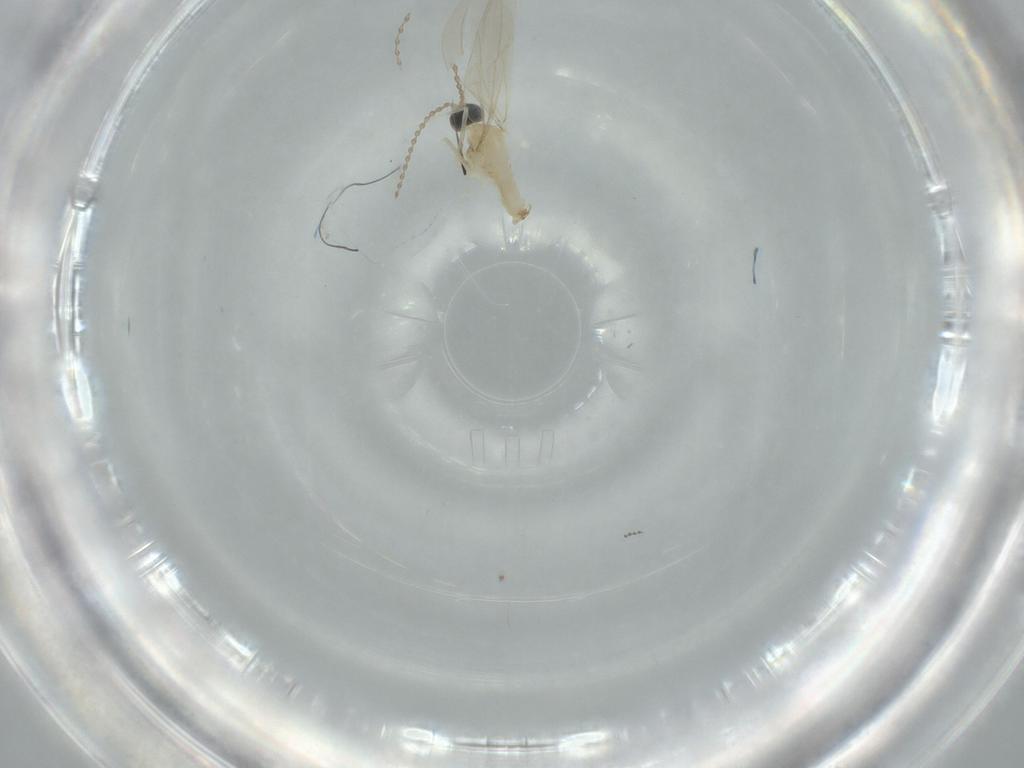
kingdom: Animalia
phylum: Arthropoda
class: Insecta
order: Diptera
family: Cecidomyiidae
